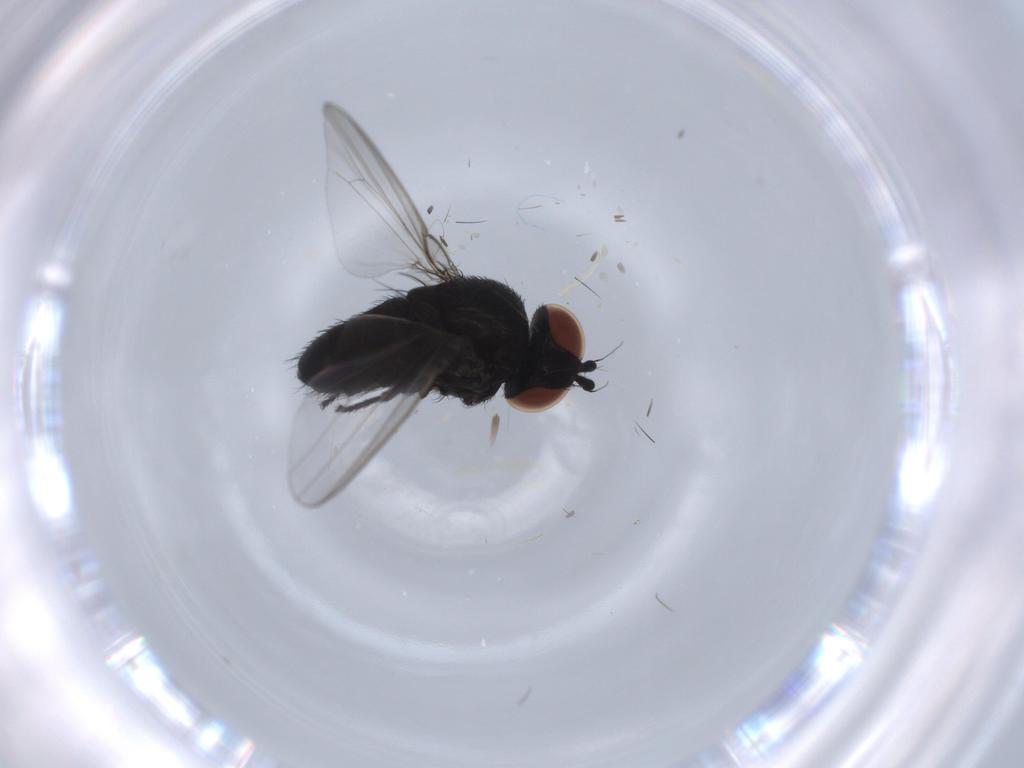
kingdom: Animalia
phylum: Arthropoda
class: Insecta
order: Diptera
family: Milichiidae
